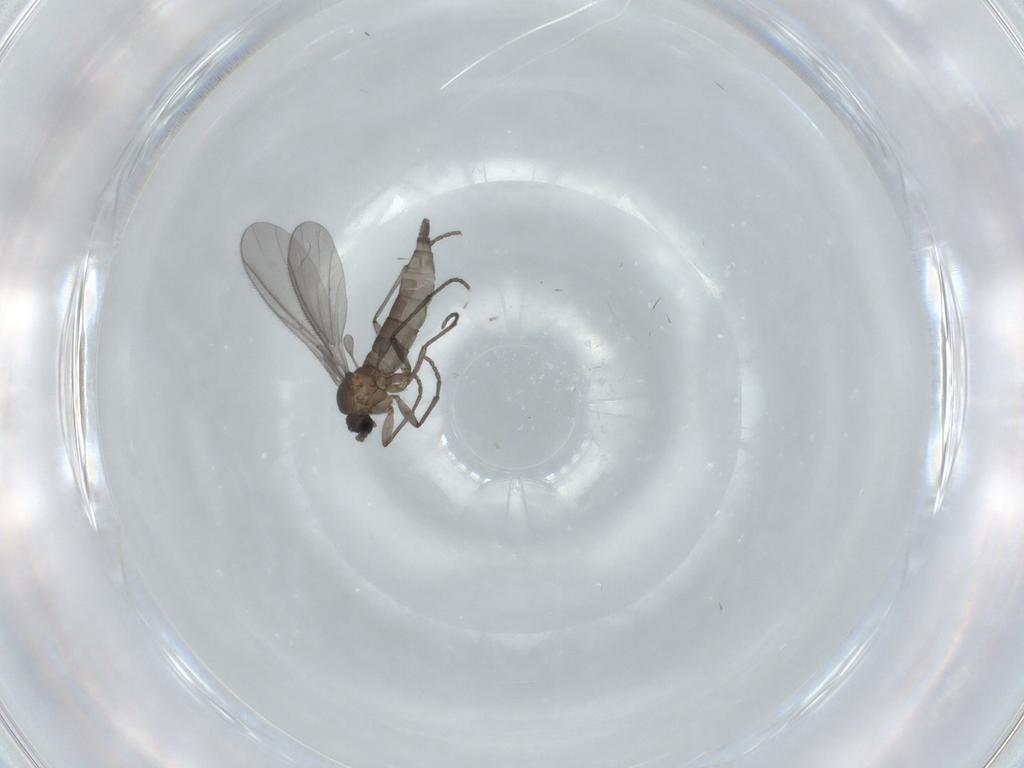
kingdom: Animalia
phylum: Arthropoda
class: Insecta
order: Diptera
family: Sciaridae
